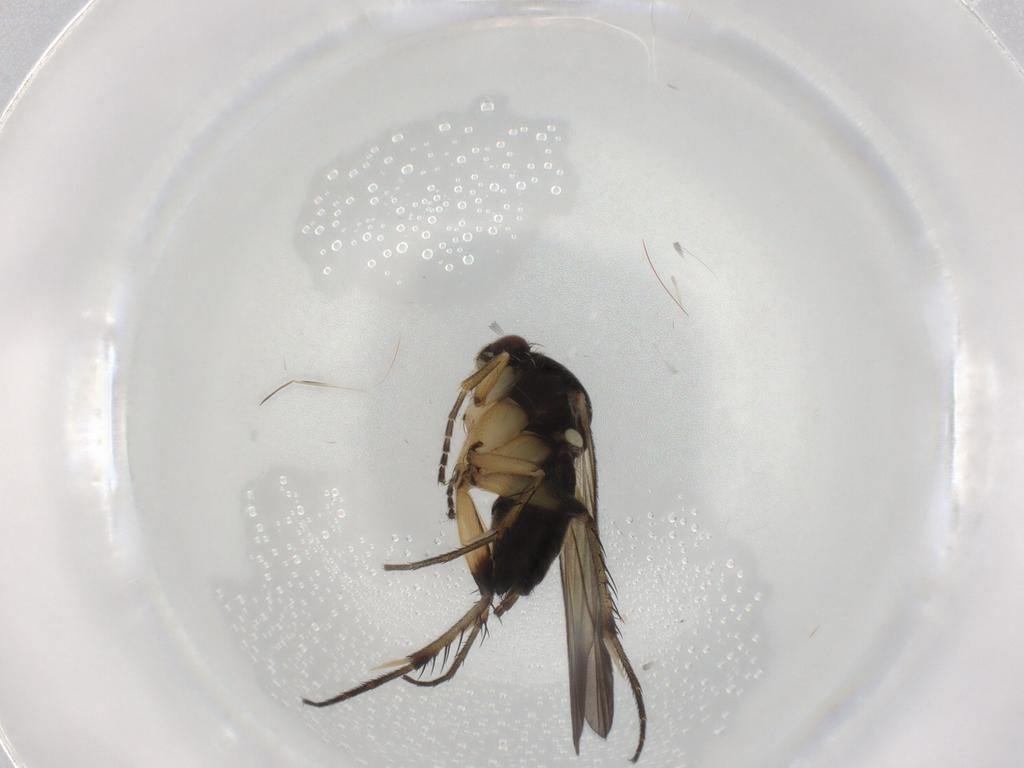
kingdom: Animalia
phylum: Arthropoda
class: Insecta
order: Diptera
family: Mycetophilidae
